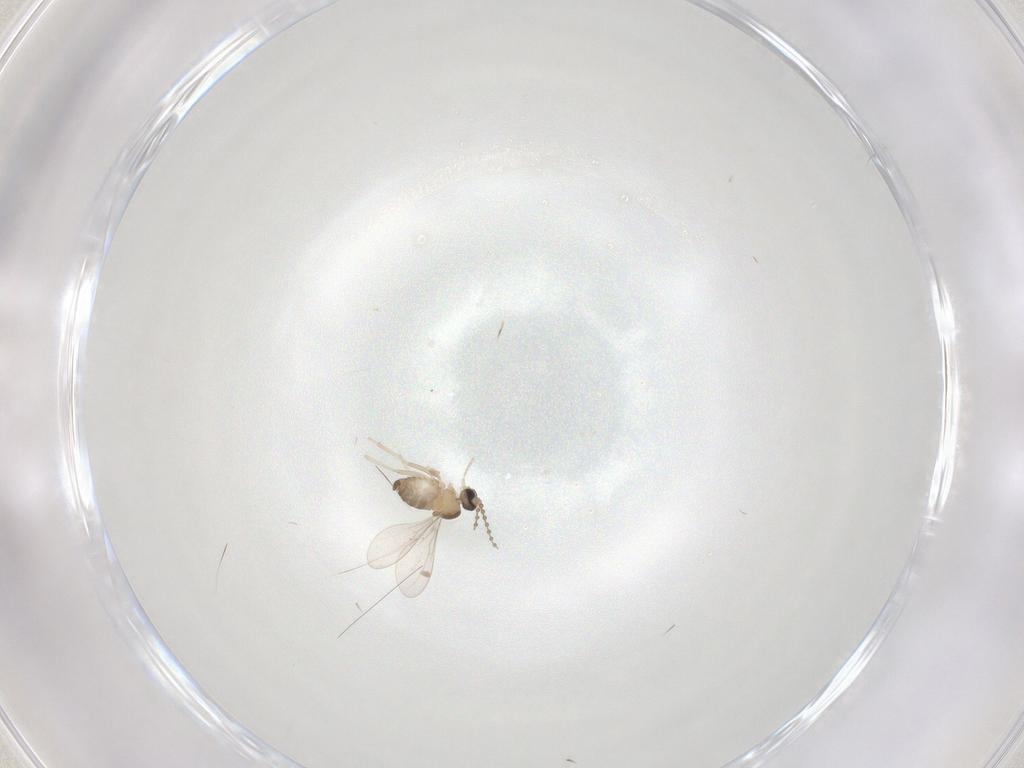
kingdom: Animalia
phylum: Arthropoda
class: Insecta
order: Diptera
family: Cecidomyiidae
